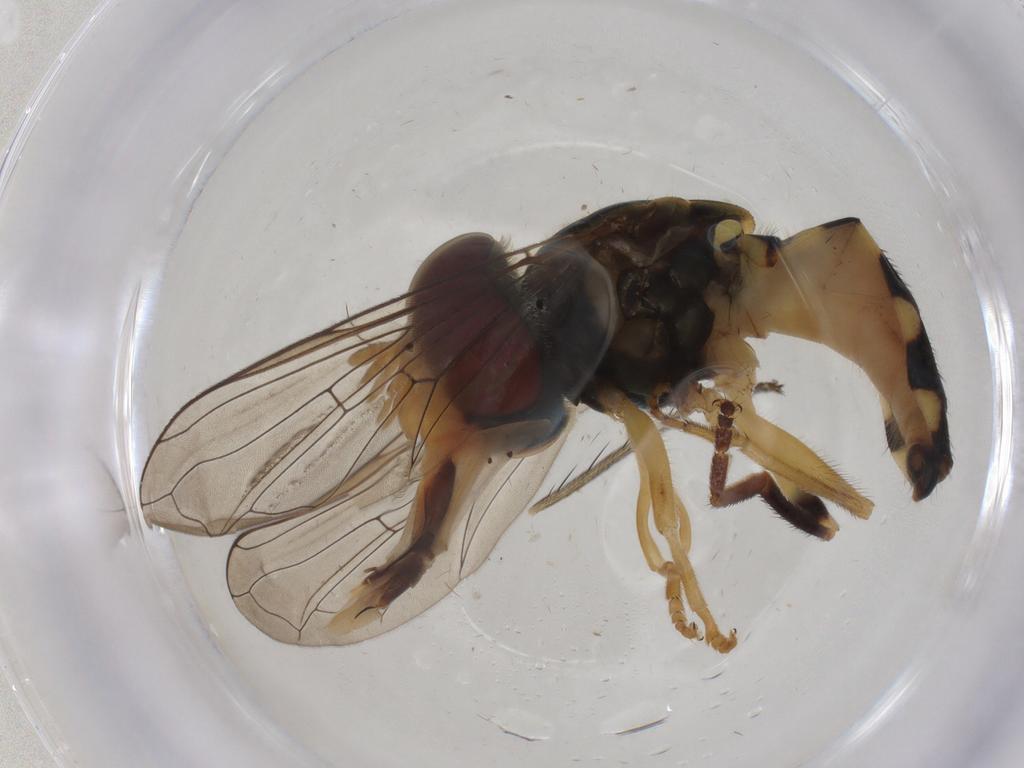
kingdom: Animalia
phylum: Arthropoda
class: Insecta
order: Diptera
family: Syrphidae
